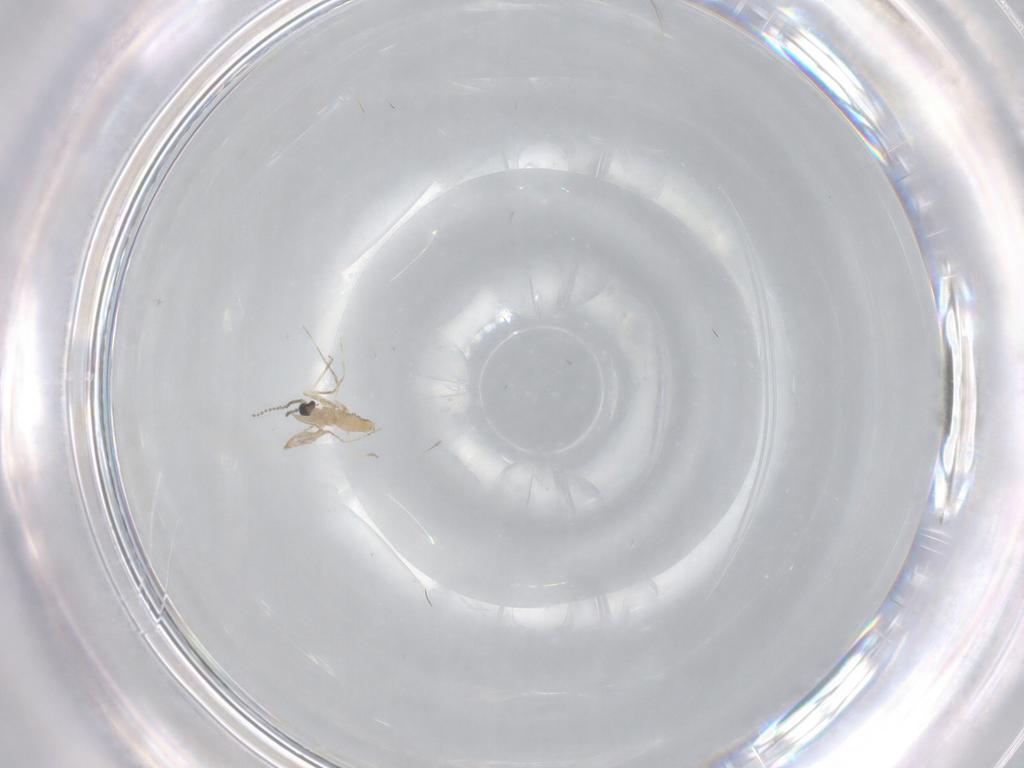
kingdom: Animalia
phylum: Arthropoda
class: Insecta
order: Diptera
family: Cecidomyiidae
